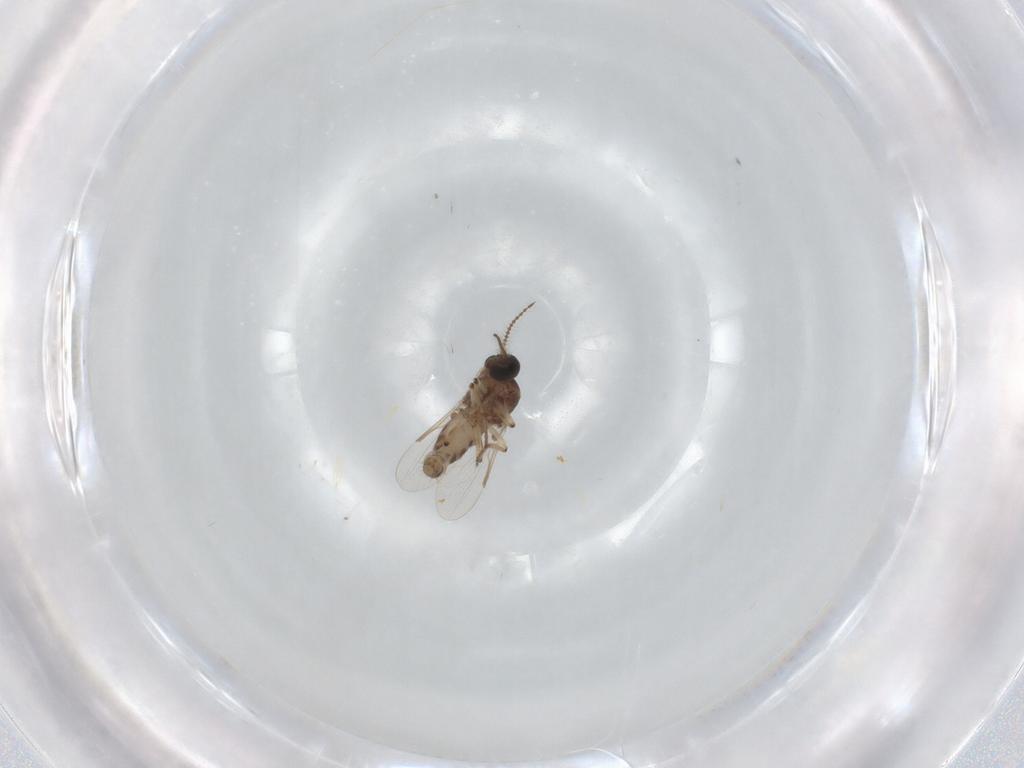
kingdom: Animalia
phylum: Arthropoda
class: Insecta
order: Diptera
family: Ceratopogonidae
